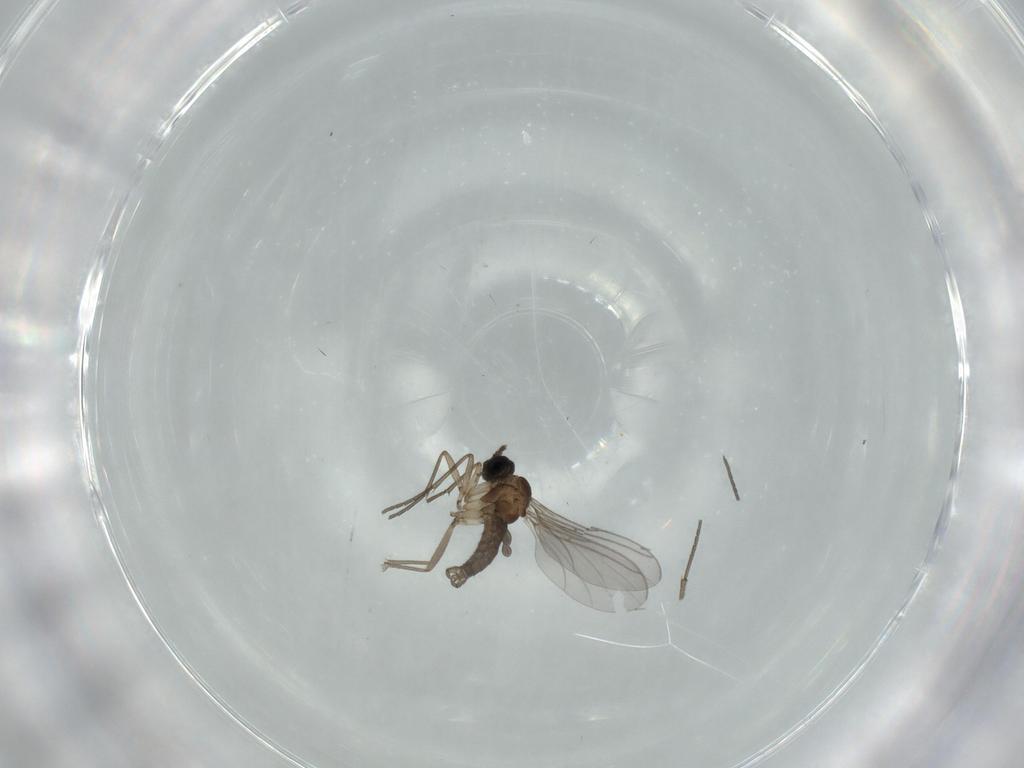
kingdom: Animalia
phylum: Arthropoda
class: Insecta
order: Diptera
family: Sciaridae
